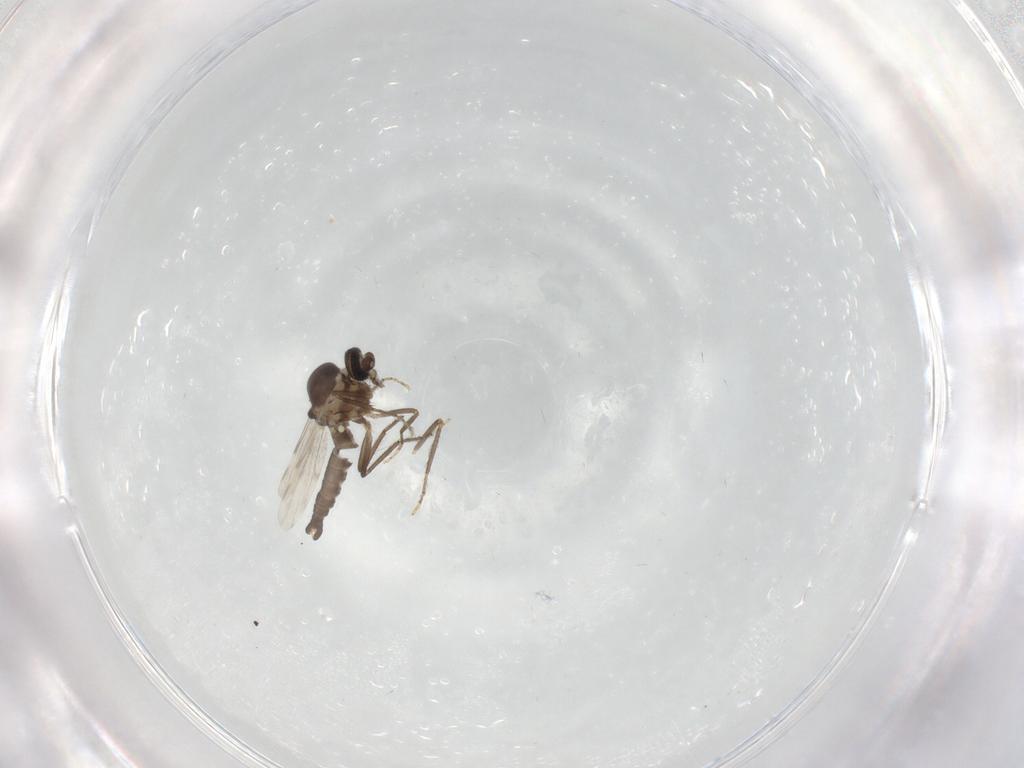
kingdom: Animalia
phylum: Arthropoda
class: Insecta
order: Diptera
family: Ceratopogonidae
